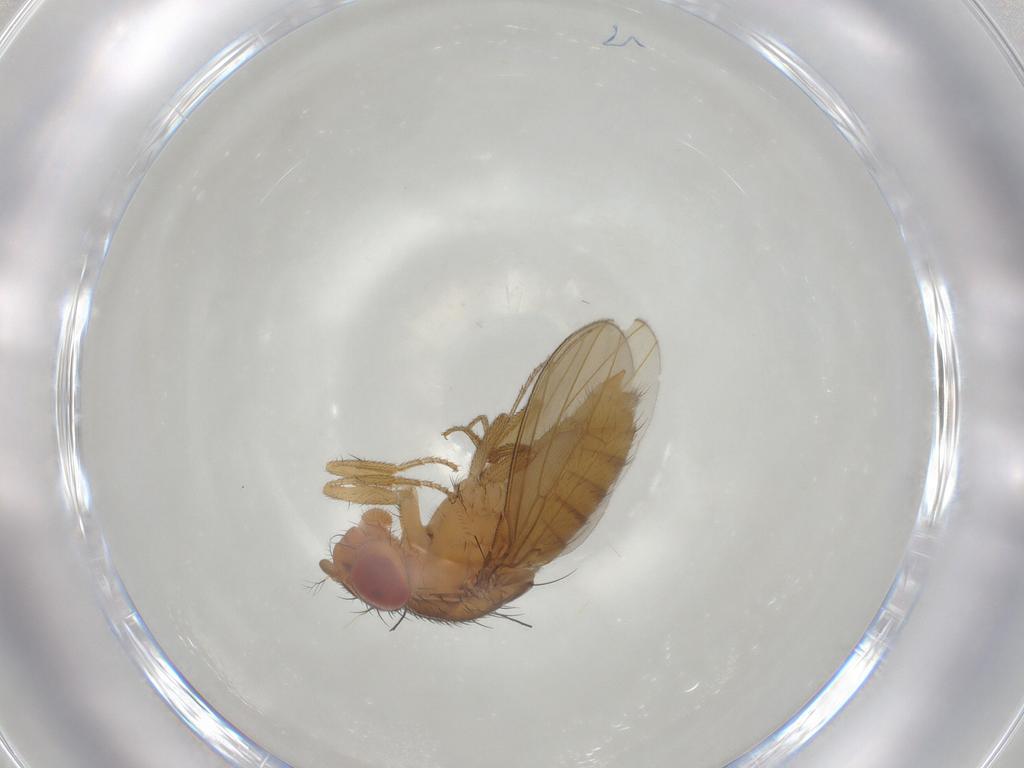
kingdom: Animalia
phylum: Arthropoda
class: Insecta
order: Diptera
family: Drosophilidae
